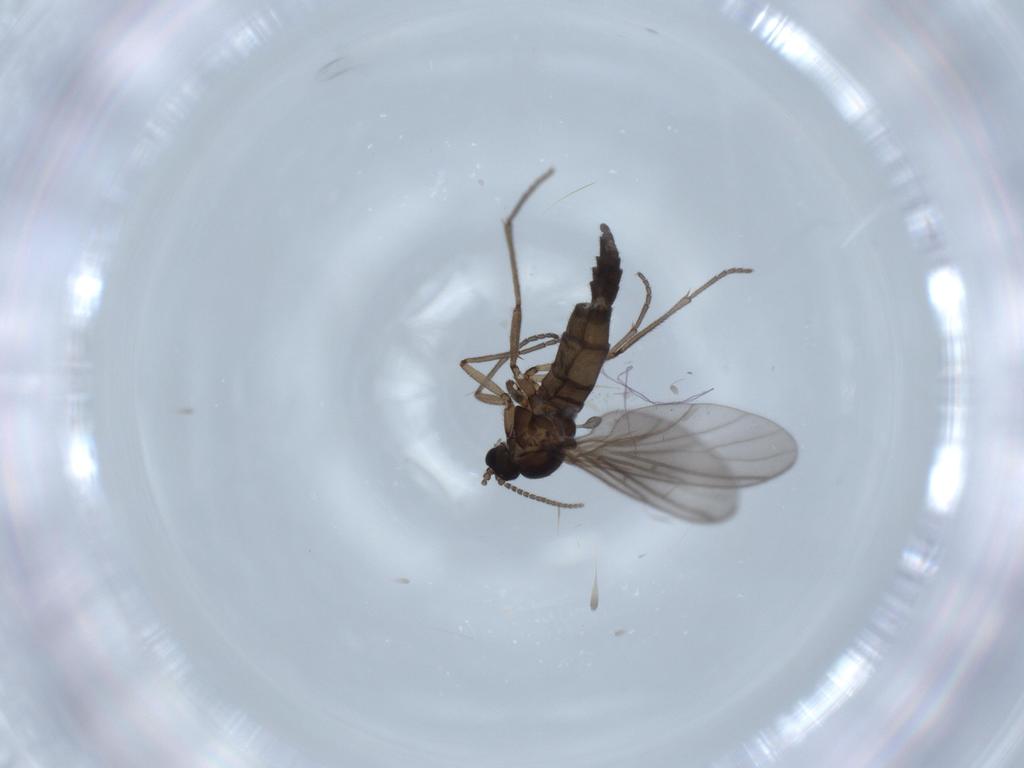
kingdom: Animalia
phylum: Arthropoda
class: Insecta
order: Diptera
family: Sciaridae
